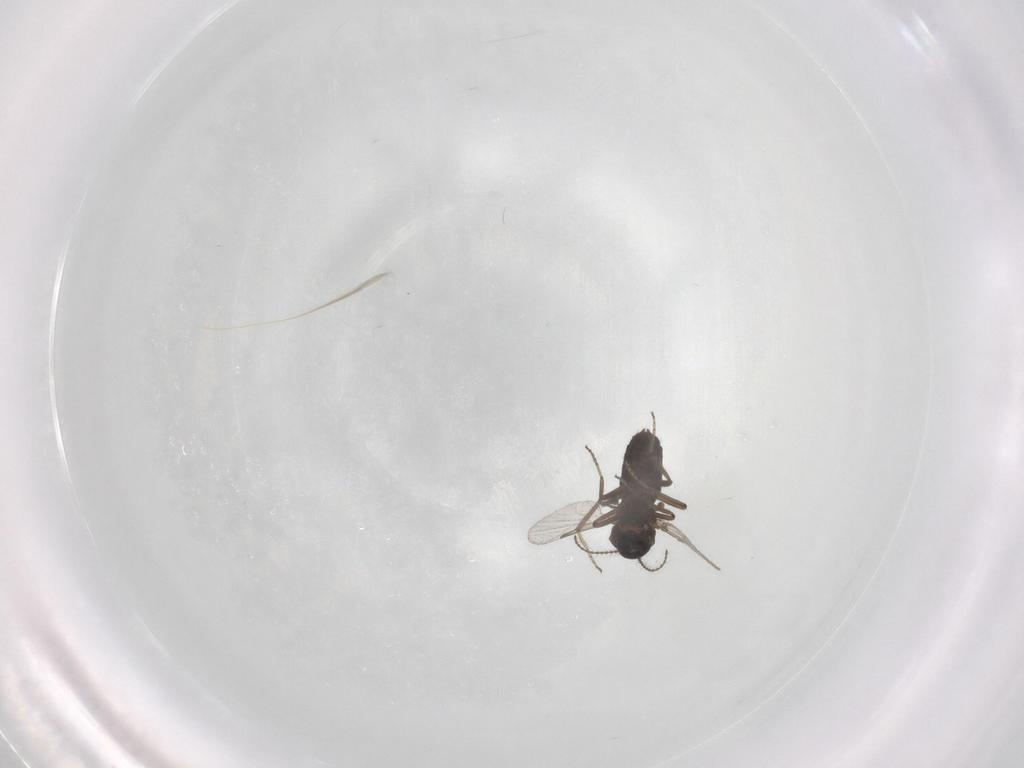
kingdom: Animalia
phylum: Arthropoda
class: Insecta
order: Diptera
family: Ceratopogonidae
